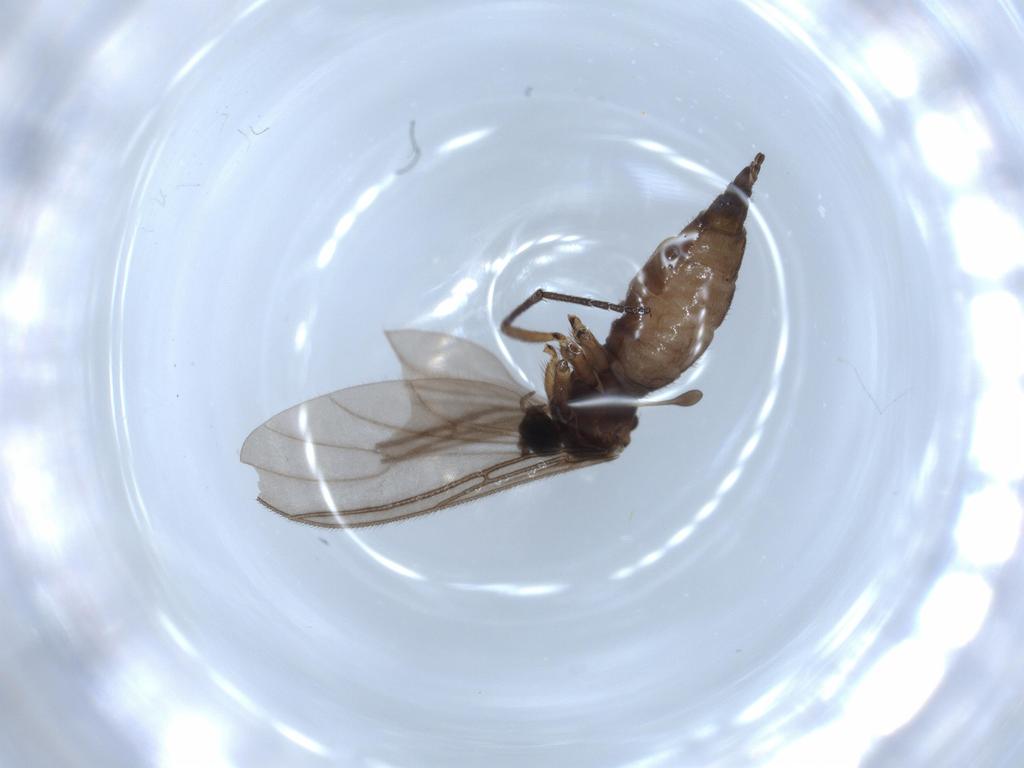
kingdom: Animalia
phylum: Arthropoda
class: Insecta
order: Diptera
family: Sciaridae
